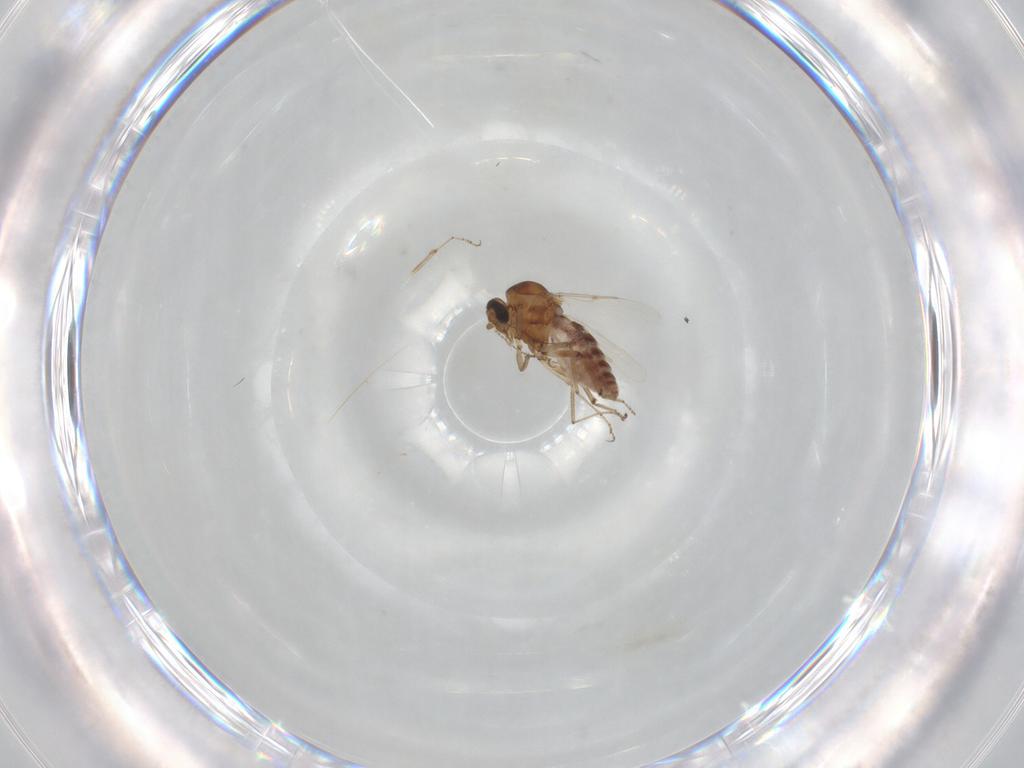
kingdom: Animalia
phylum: Arthropoda
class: Insecta
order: Diptera
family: Ceratopogonidae
